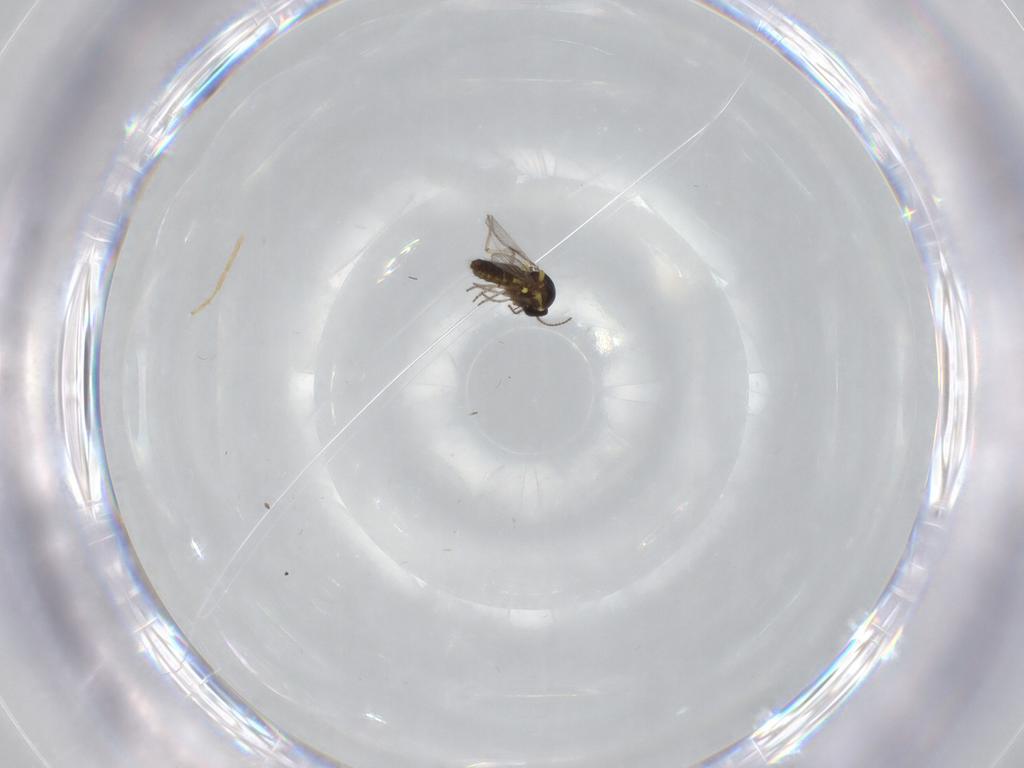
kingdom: Animalia
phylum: Arthropoda
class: Insecta
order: Diptera
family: Ceratopogonidae
